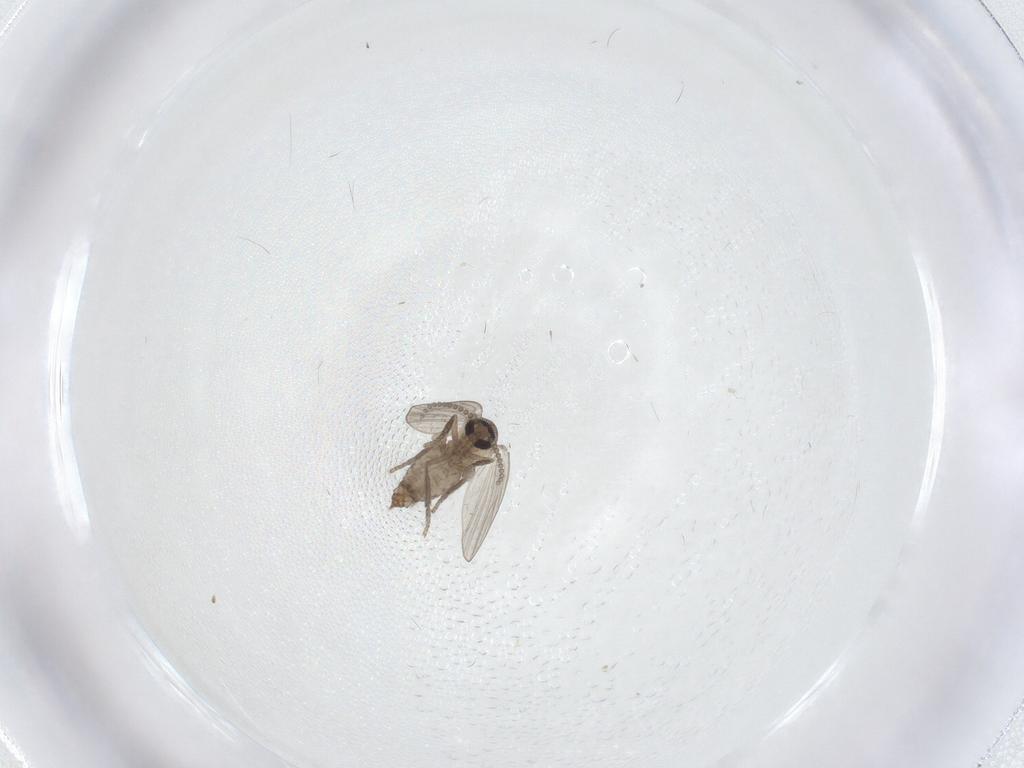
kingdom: Animalia
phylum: Arthropoda
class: Insecta
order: Diptera
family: Psychodidae
